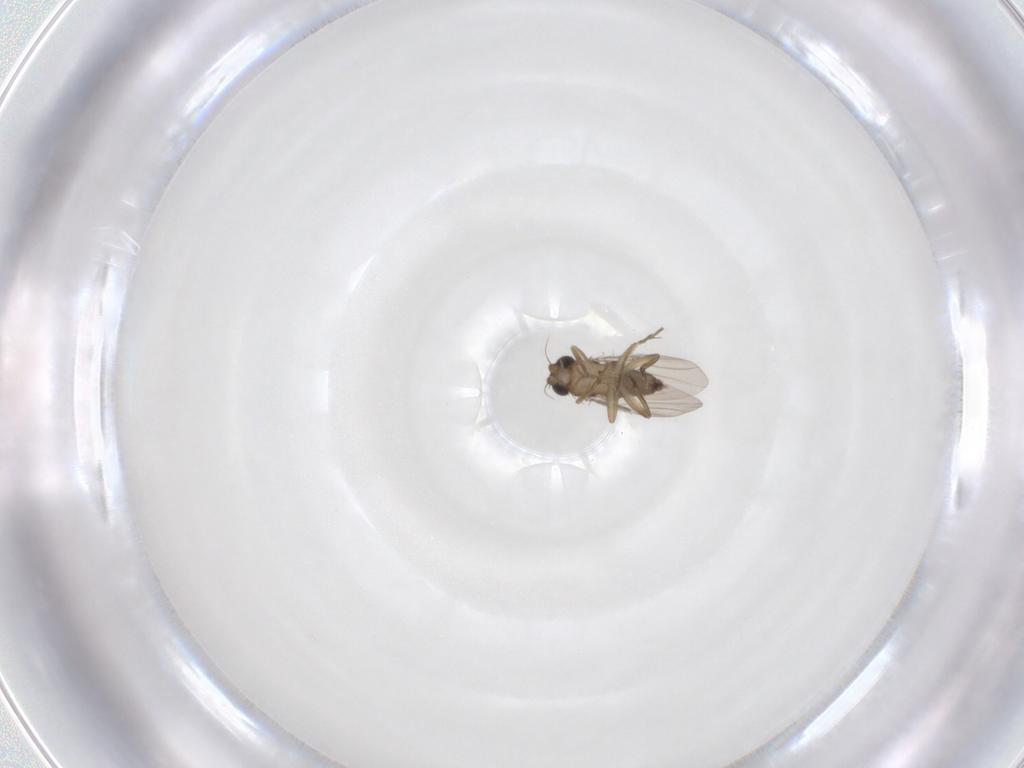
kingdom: Animalia
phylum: Arthropoda
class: Insecta
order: Diptera
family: Phoridae
